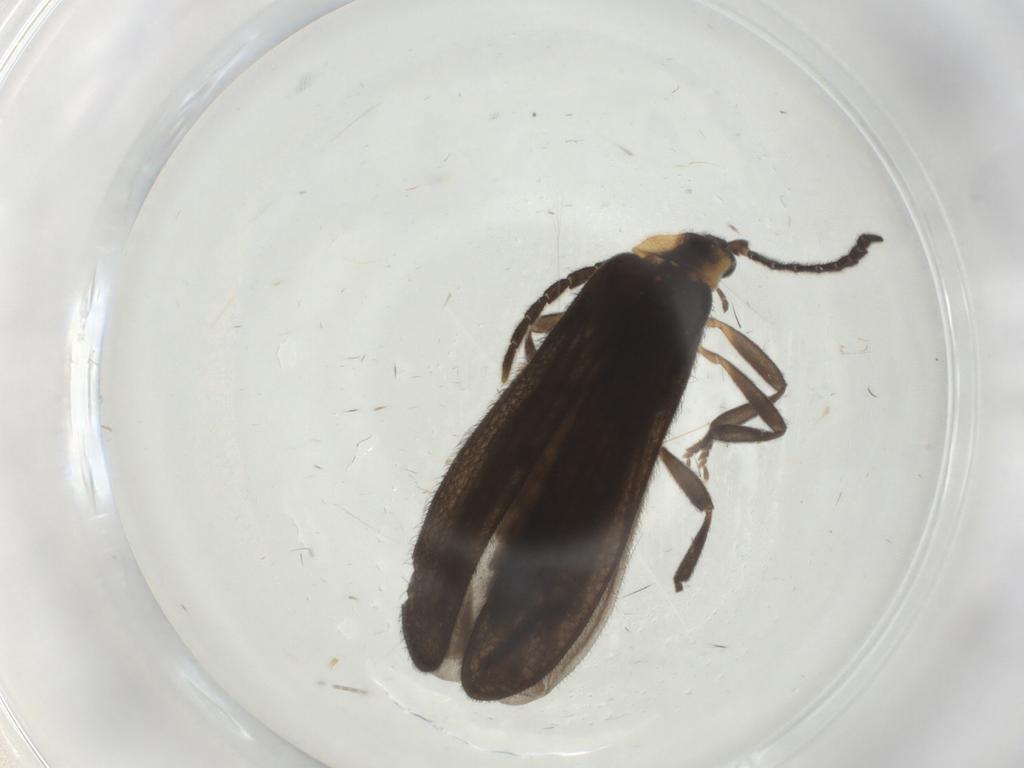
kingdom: Animalia
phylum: Arthropoda
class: Insecta
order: Coleoptera
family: Lycidae
